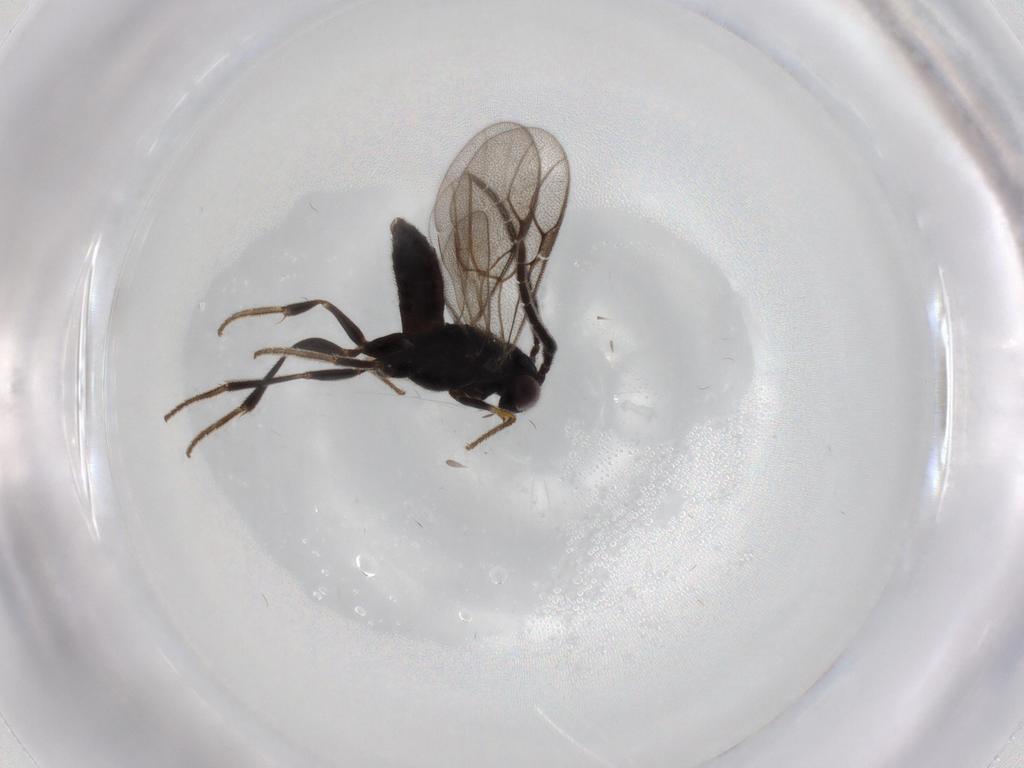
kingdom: Animalia
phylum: Arthropoda
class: Insecta
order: Hymenoptera
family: Dryinidae
